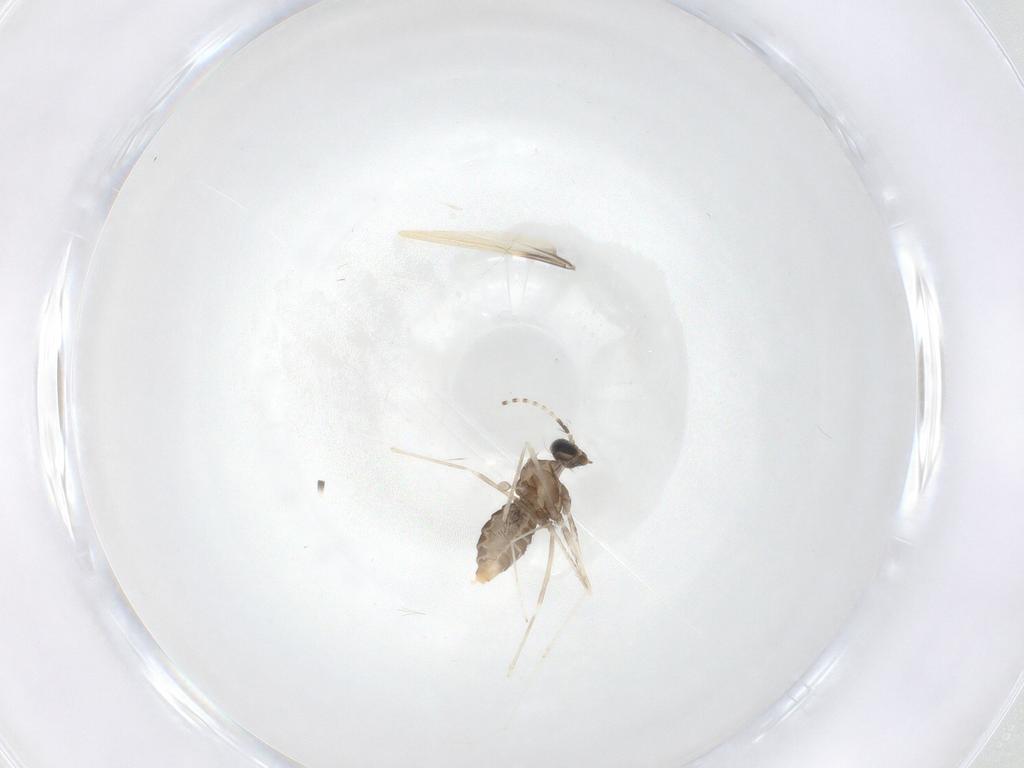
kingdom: Animalia
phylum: Arthropoda
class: Insecta
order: Diptera
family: Cecidomyiidae
